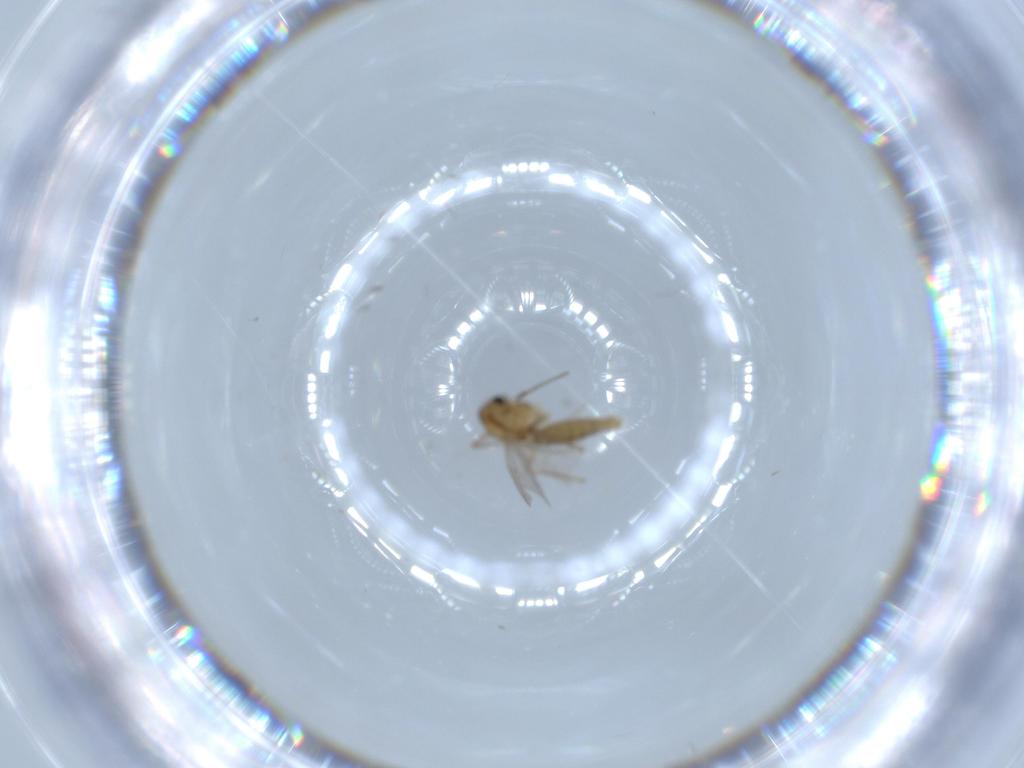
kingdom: Animalia
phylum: Arthropoda
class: Insecta
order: Diptera
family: Chironomidae
